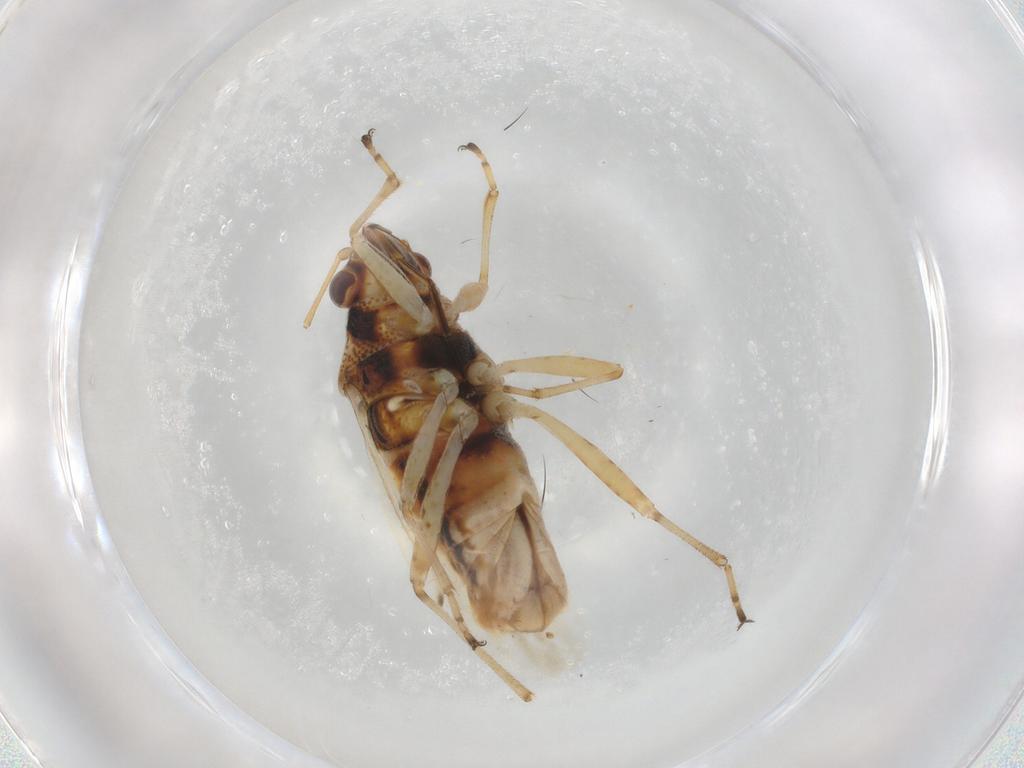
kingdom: Animalia
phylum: Arthropoda
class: Insecta
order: Hemiptera
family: Lygaeidae
